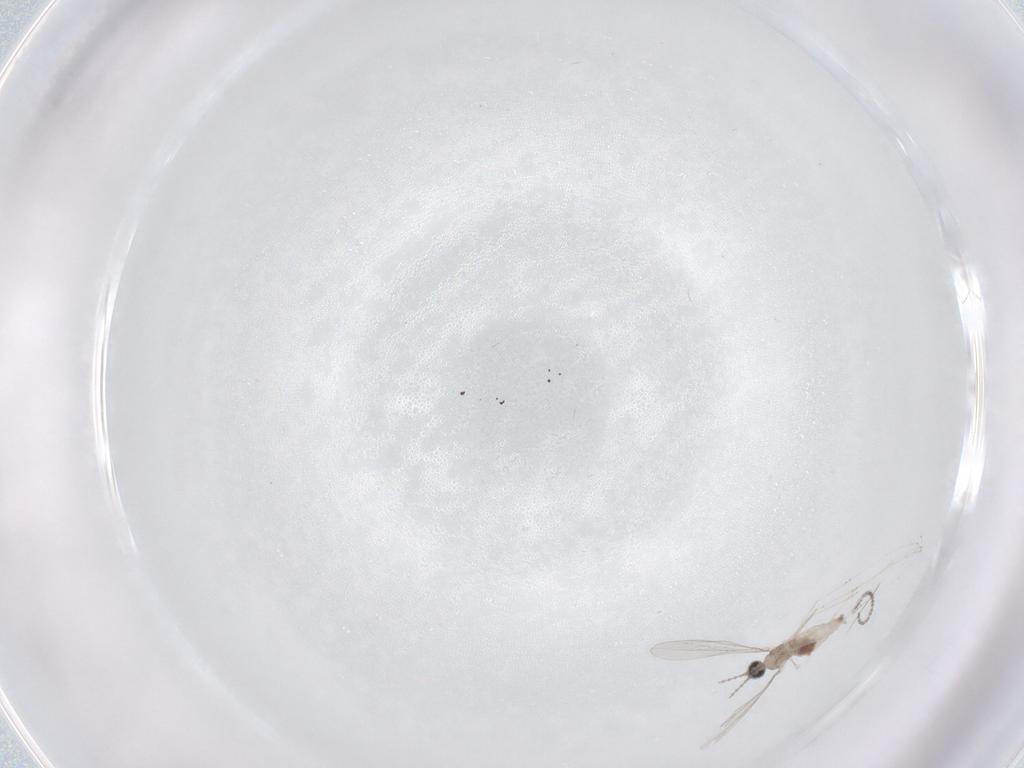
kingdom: Animalia
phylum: Arthropoda
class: Insecta
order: Diptera
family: Cecidomyiidae
